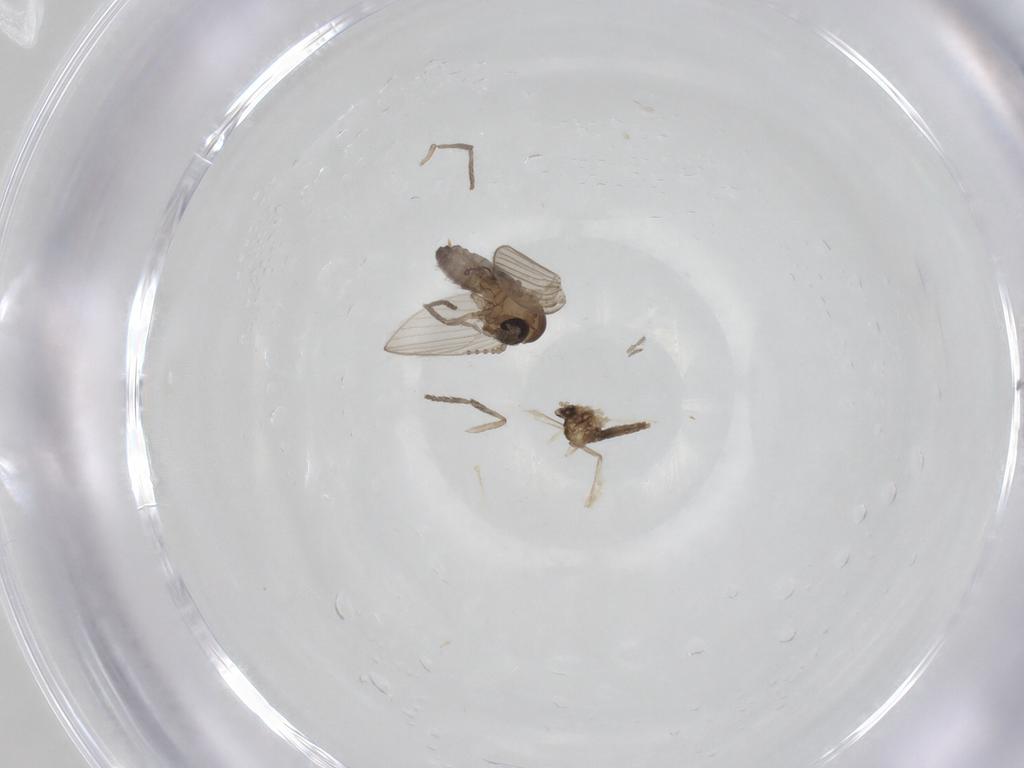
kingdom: Animalia
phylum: Arthropoda
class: Insecta
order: Diptera
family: Psychodidae
